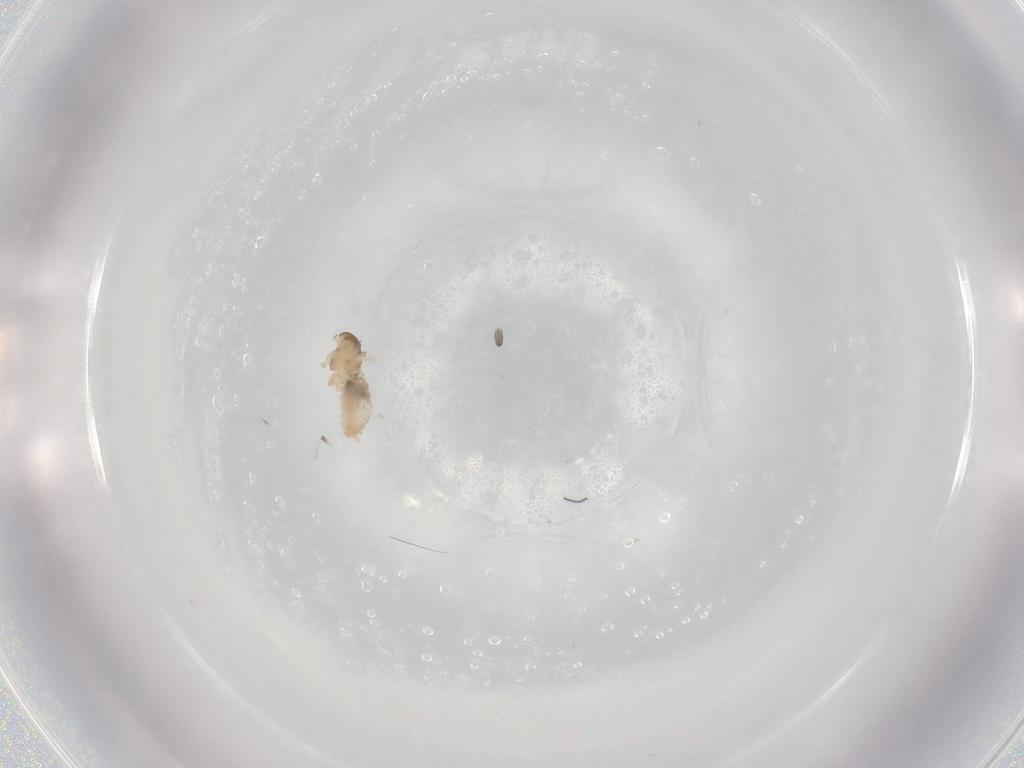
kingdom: Animalia
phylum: Arthropoda
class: Insecta
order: Diptera
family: Cecidomyiidae
